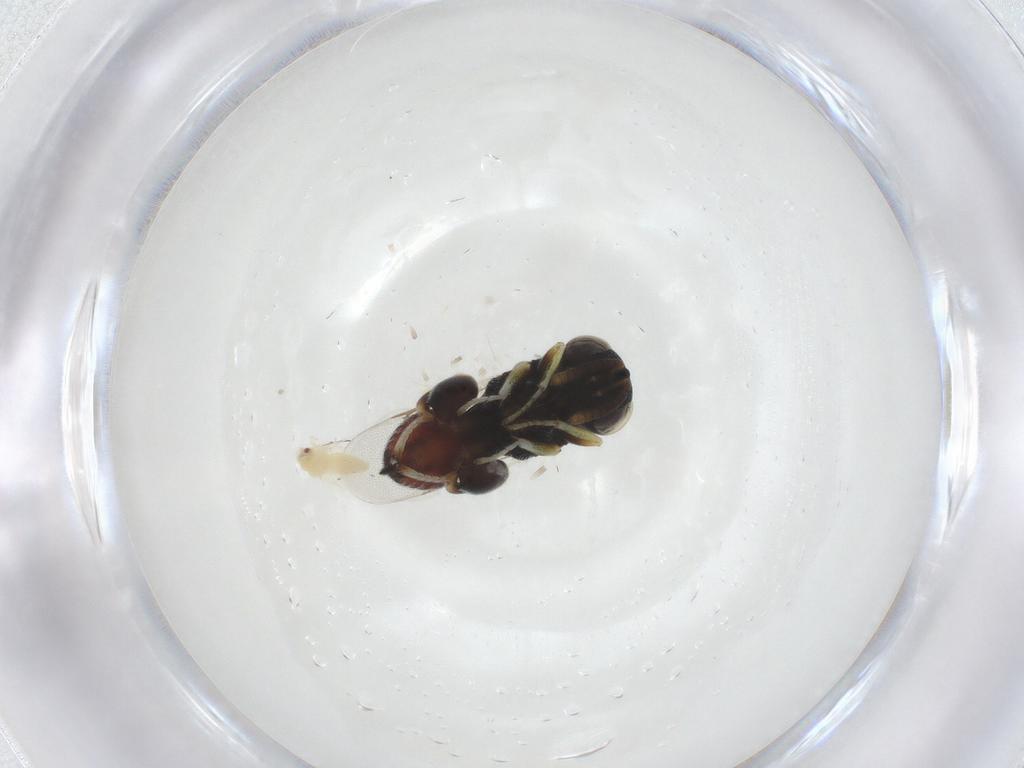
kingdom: Animalia
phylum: Arthropoda
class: Insecta
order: Hymenoptera
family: Chalcididae
